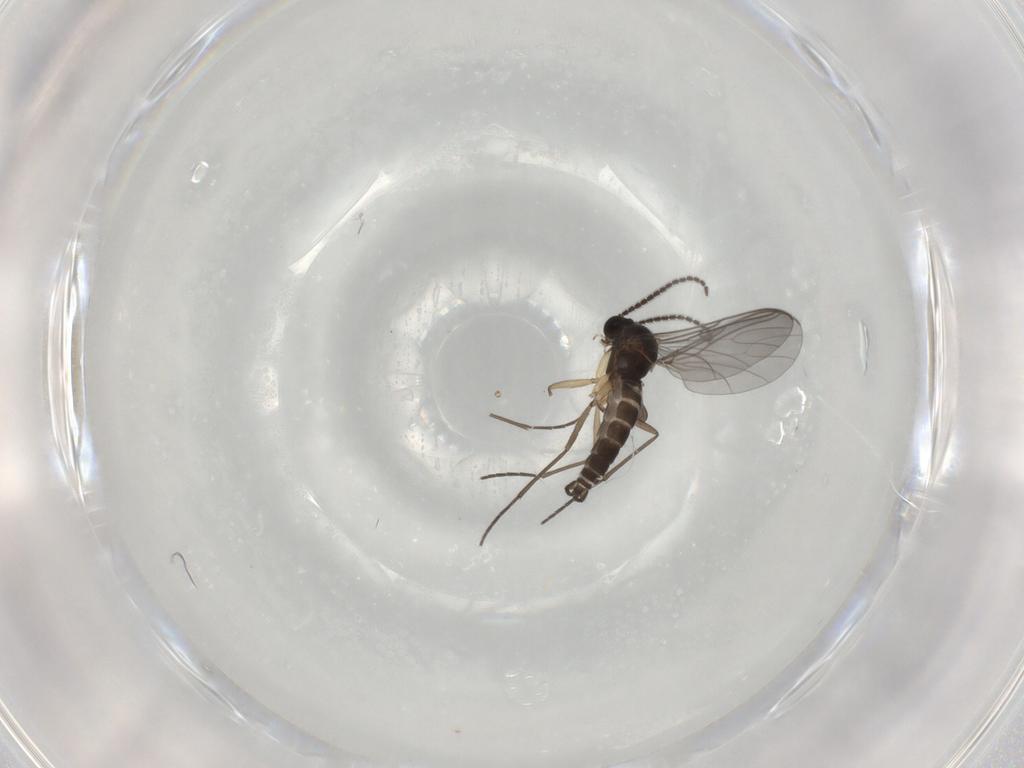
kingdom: Animalia
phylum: Arthropoda
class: Insecta
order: Diptera
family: Sciaridae
